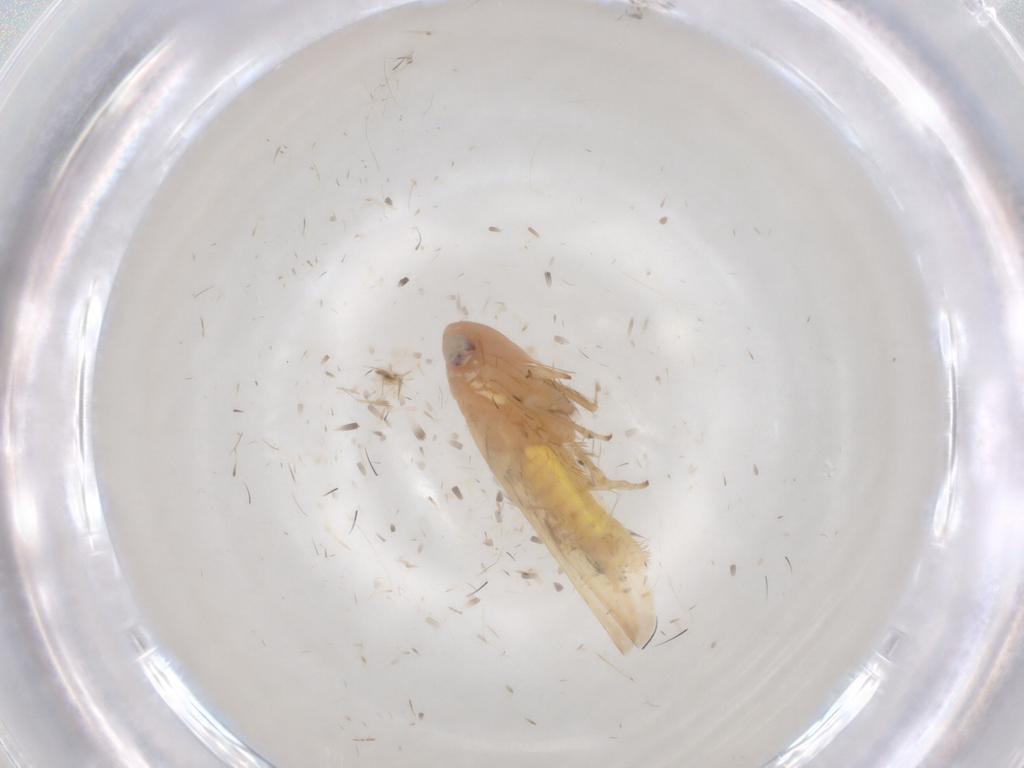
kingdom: Animalia
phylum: Arthropoda
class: Insecta
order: Hemiptera
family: Cicadellidae
